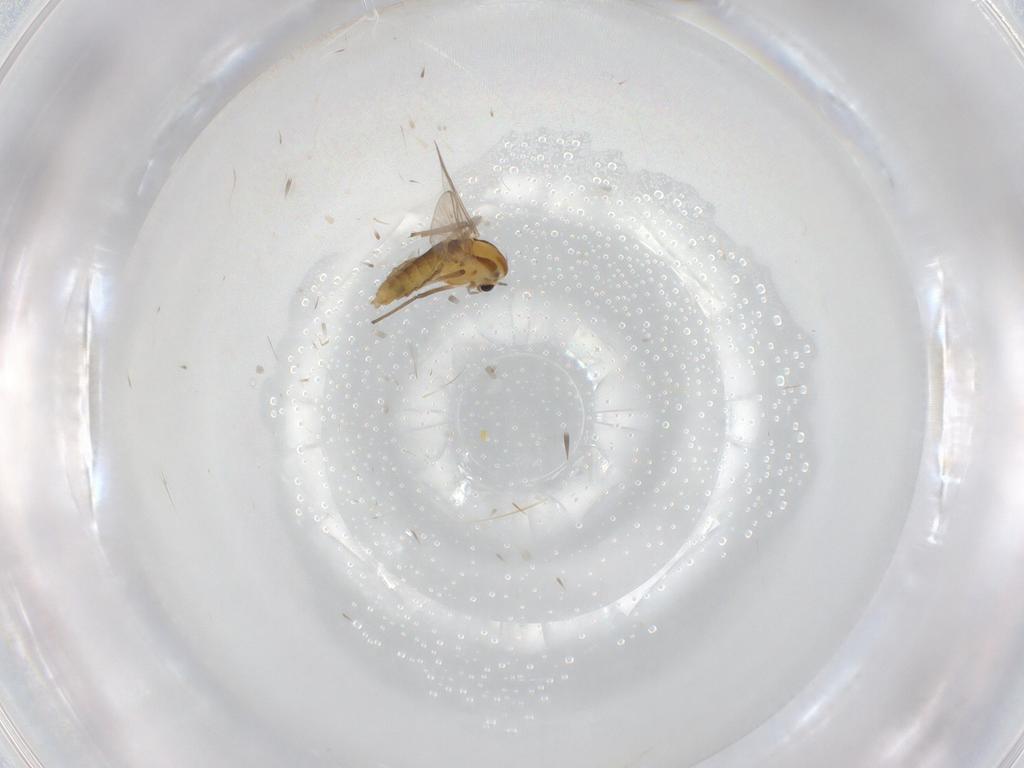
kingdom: Animalia
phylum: Arthropoda
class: Insecta
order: Diptera
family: Chironomidae
